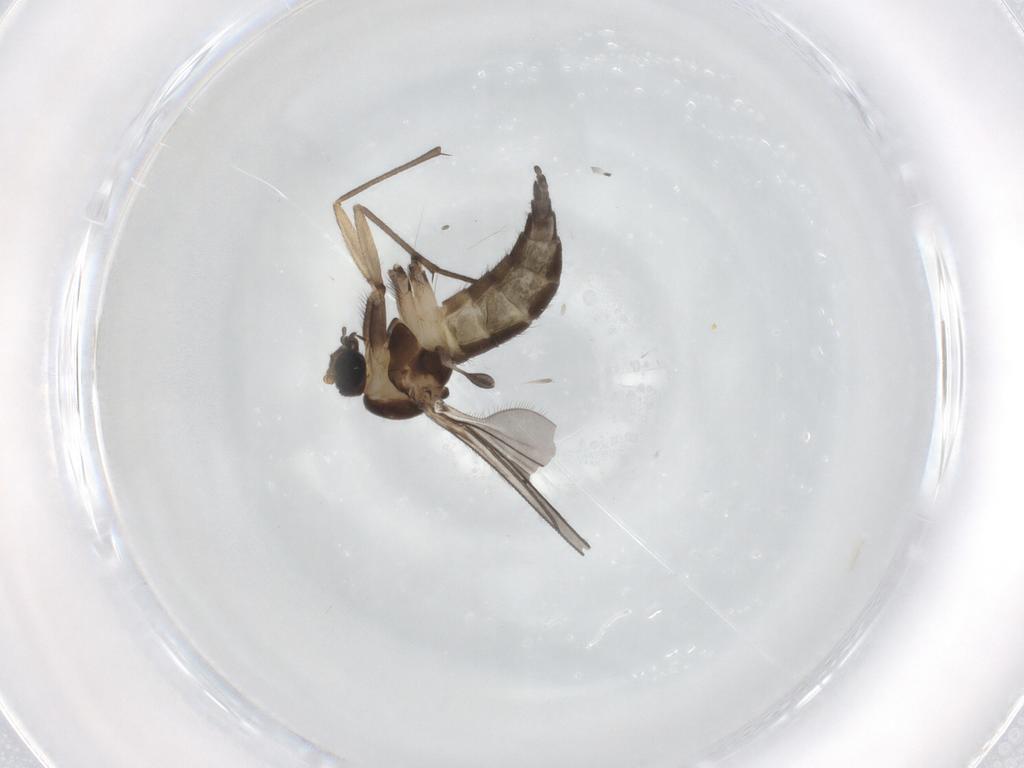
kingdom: Animalia
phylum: Arthropoda
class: Insecta
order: Diptera
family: Sciaridae
